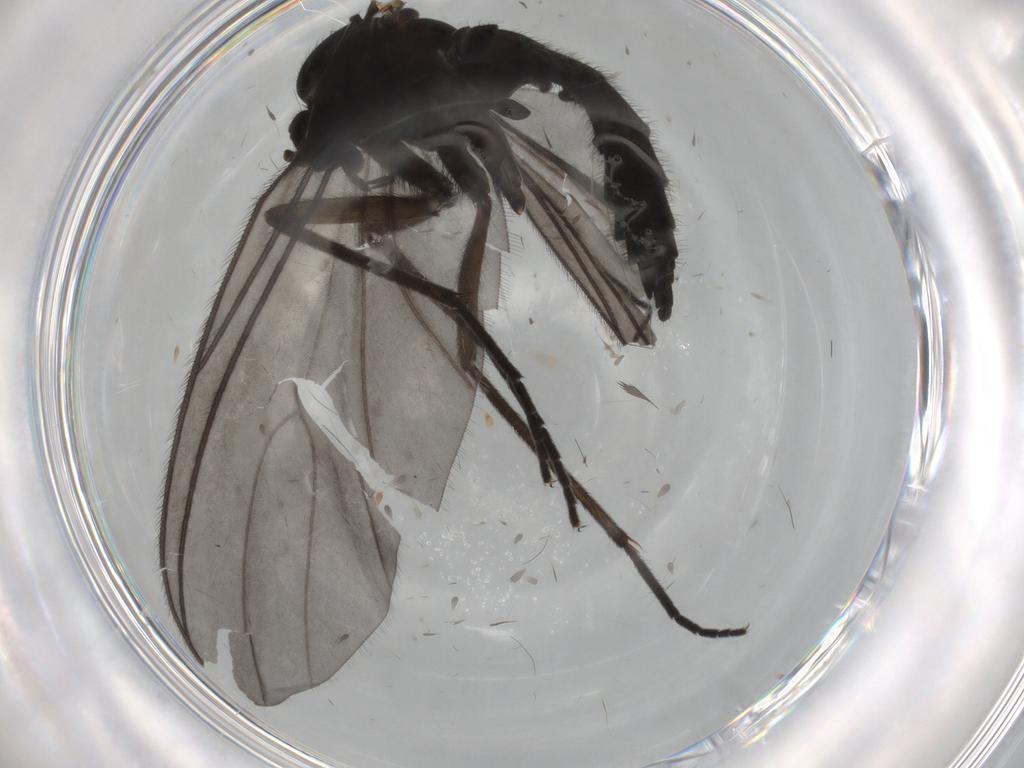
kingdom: Animalia
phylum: Arthropoda
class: Insecta
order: Diptera
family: Sciaridae
